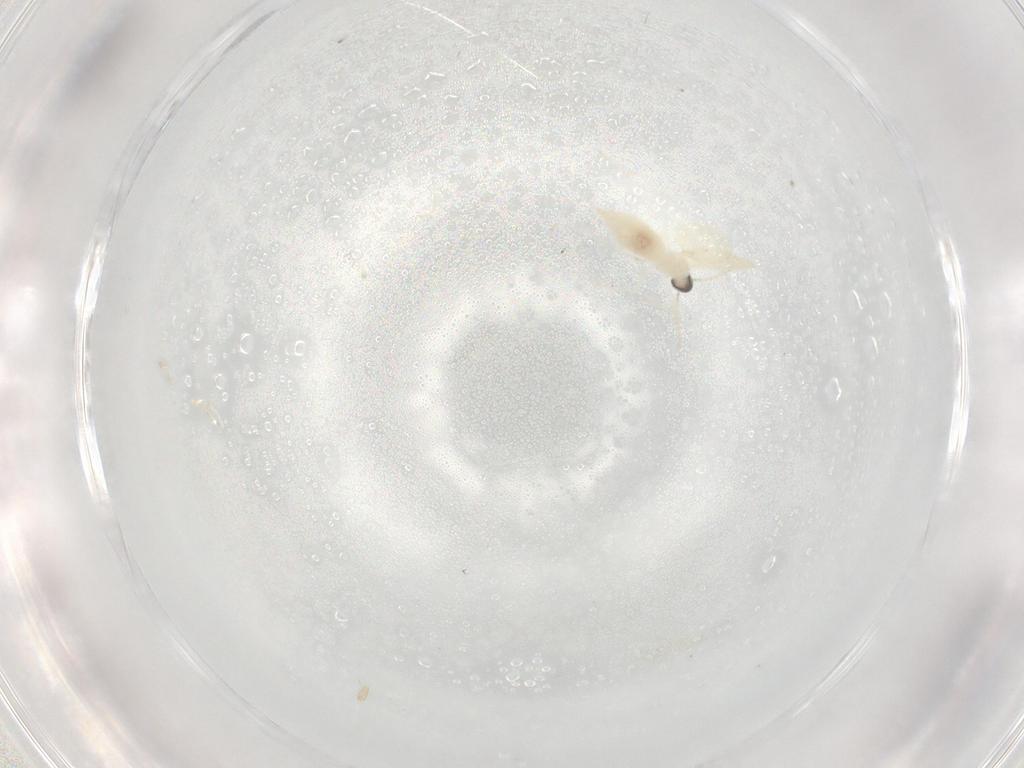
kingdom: Animalia
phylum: Arthropoda
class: Insecta
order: Diptera
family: Cecidomyiidae
